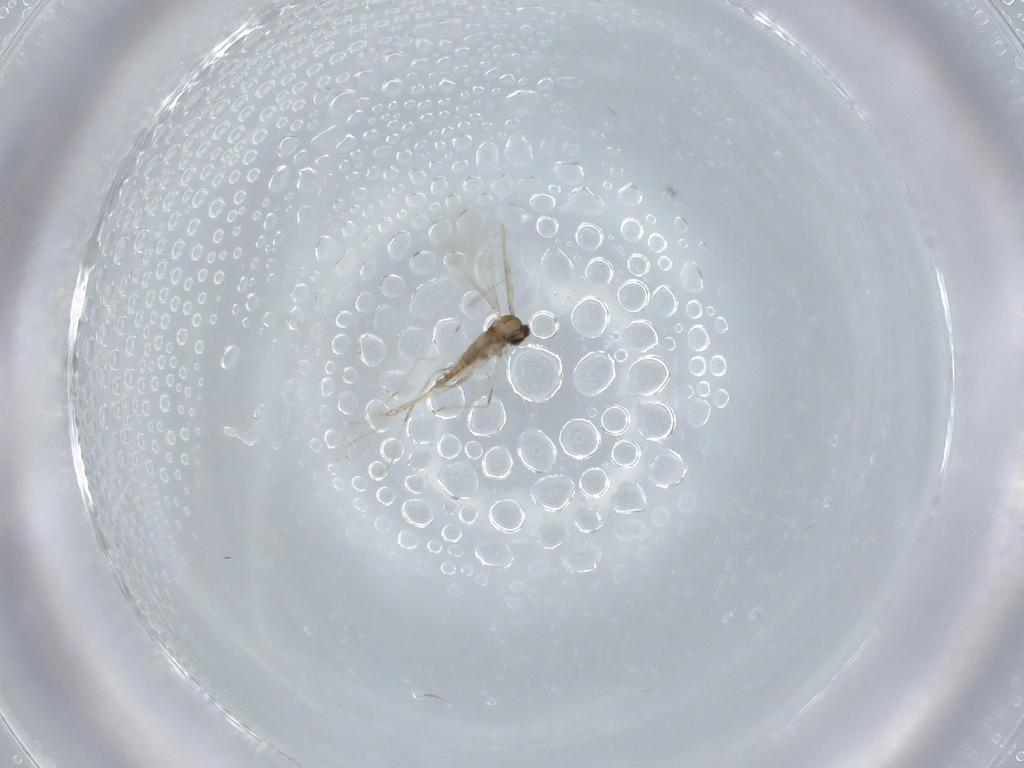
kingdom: Animalia
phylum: Arthropoda
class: Insecta
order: Diptera
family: Cecidomyiidae
